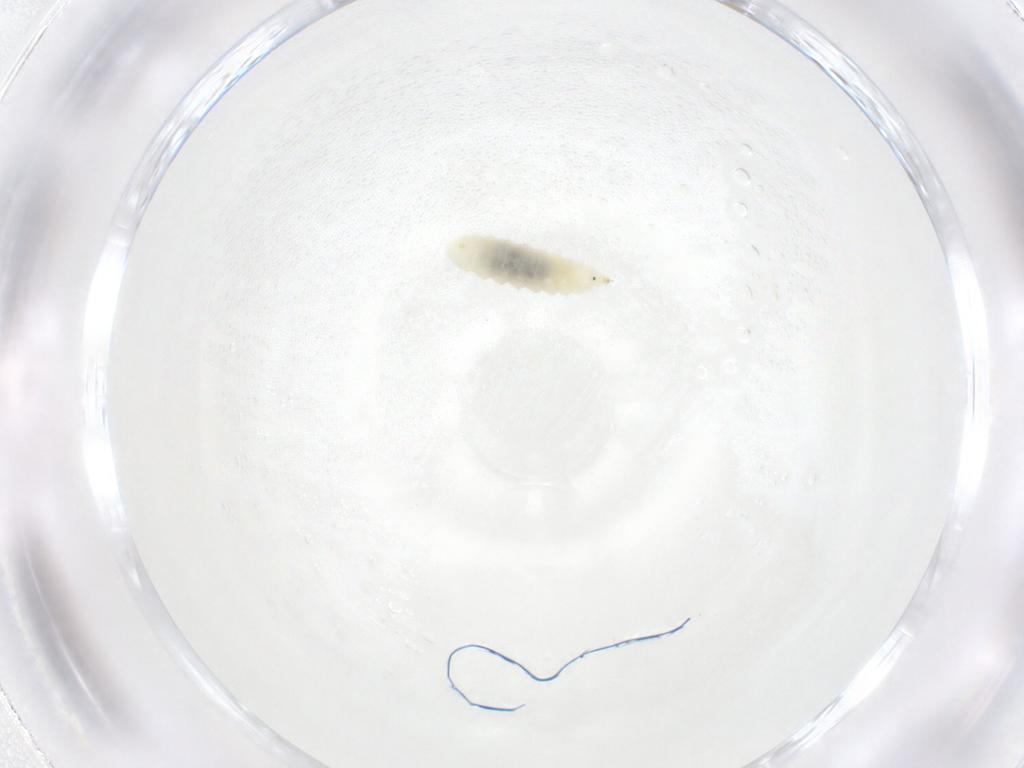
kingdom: Animalia
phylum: Arthropoda
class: Insecta
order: Diptera
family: Cecidomyiidae
